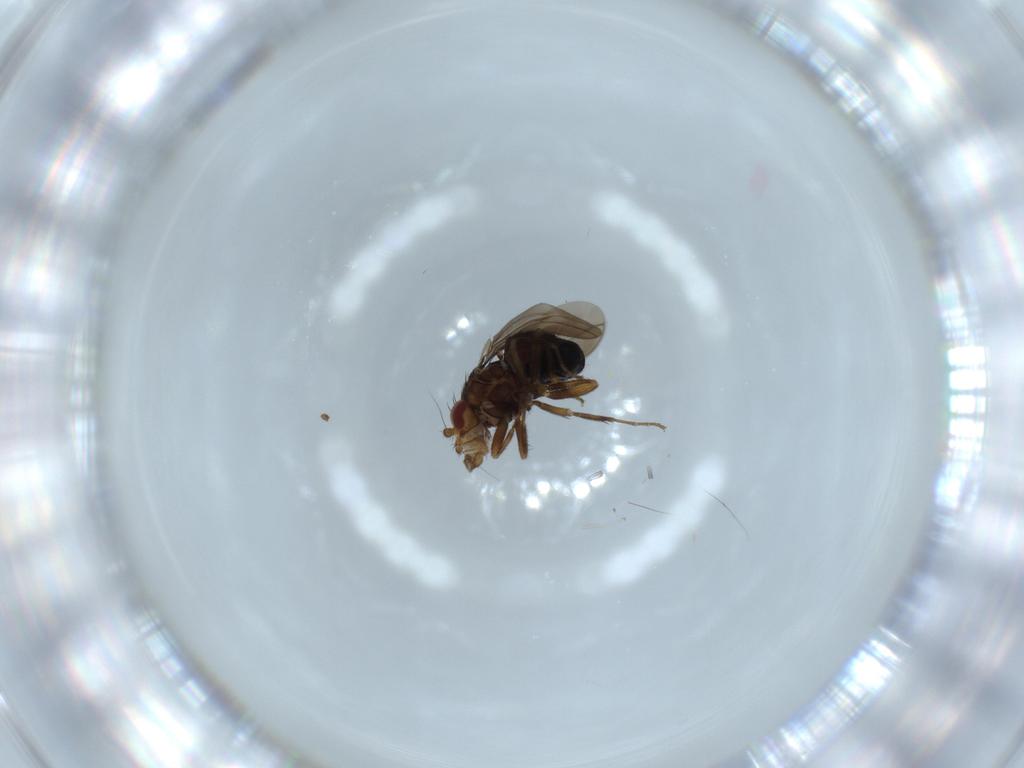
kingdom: Animalia
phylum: Arthropoda
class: Insecta
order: Diptera
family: Sphaeroceridae
